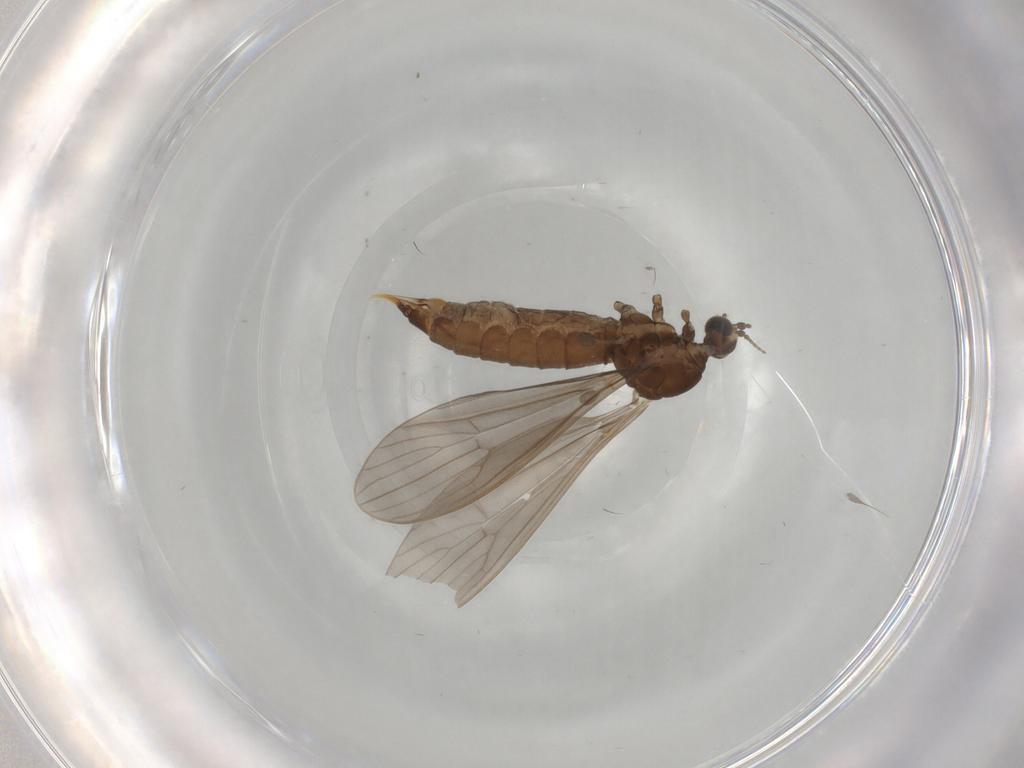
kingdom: Animalia
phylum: Arthropoda
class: Insecta
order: Diptera
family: Limoniidae
